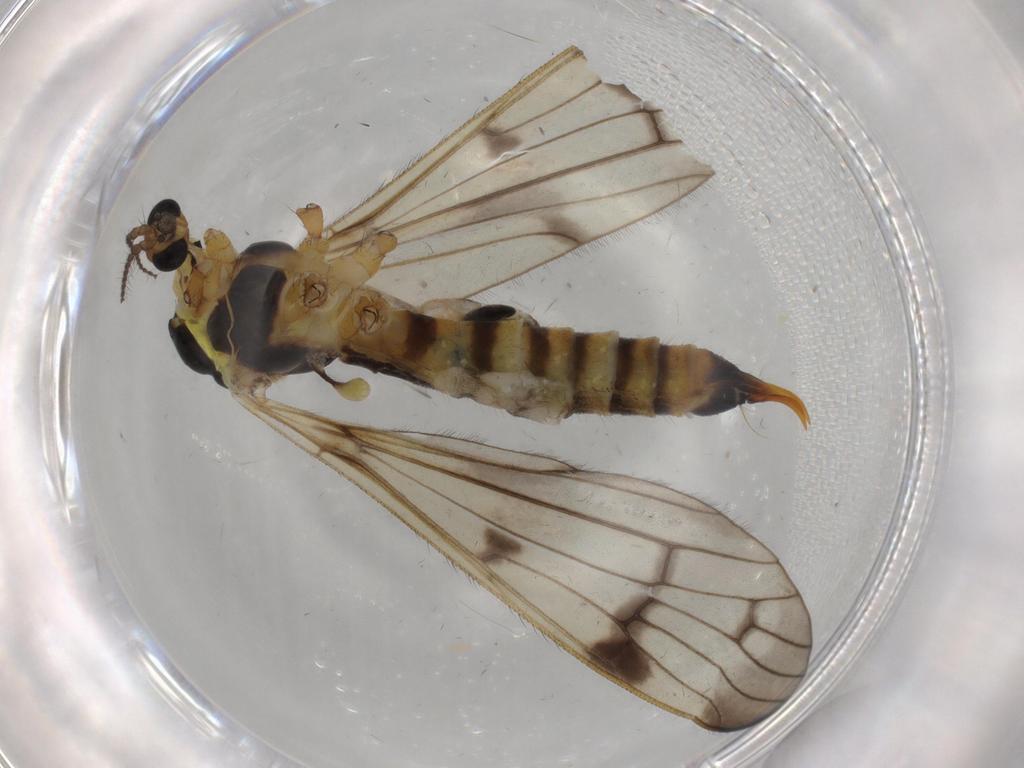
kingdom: Animalia
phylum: Arthropoda
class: Insecta
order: Diptera
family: Limoniidae
